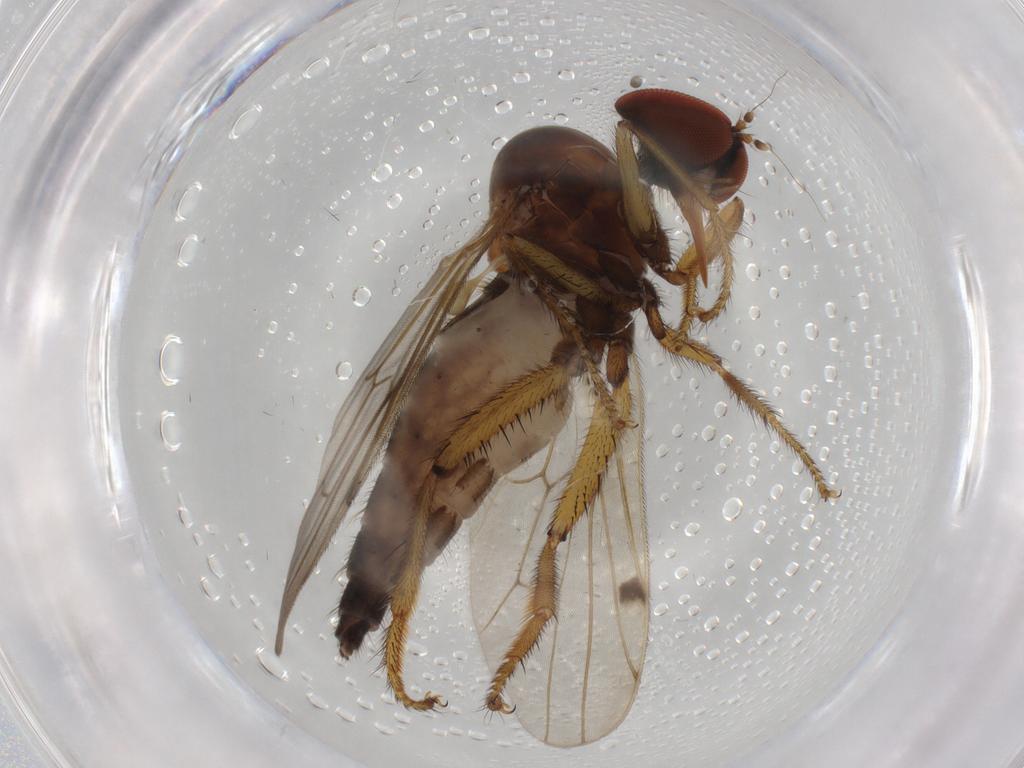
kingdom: Animalia
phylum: Arthropoda
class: Insecta
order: Diptera
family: Hybotidae
